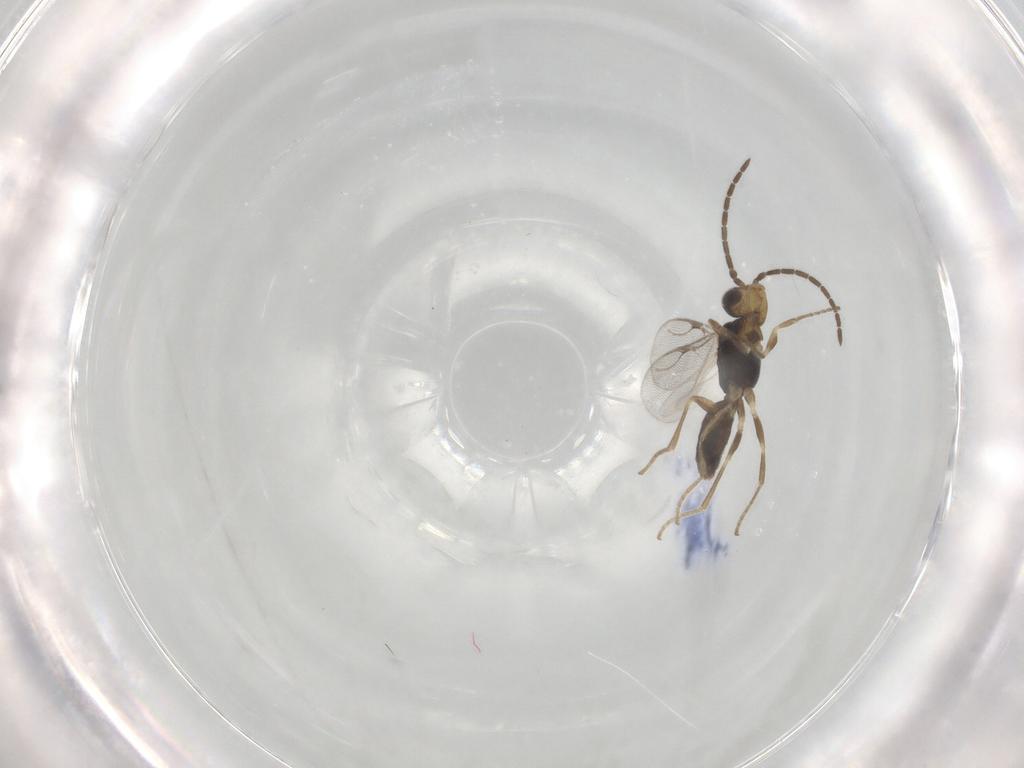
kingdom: Animalia
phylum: Arthropoda
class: Insecta
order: Hymenoptera
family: Dryinidae
